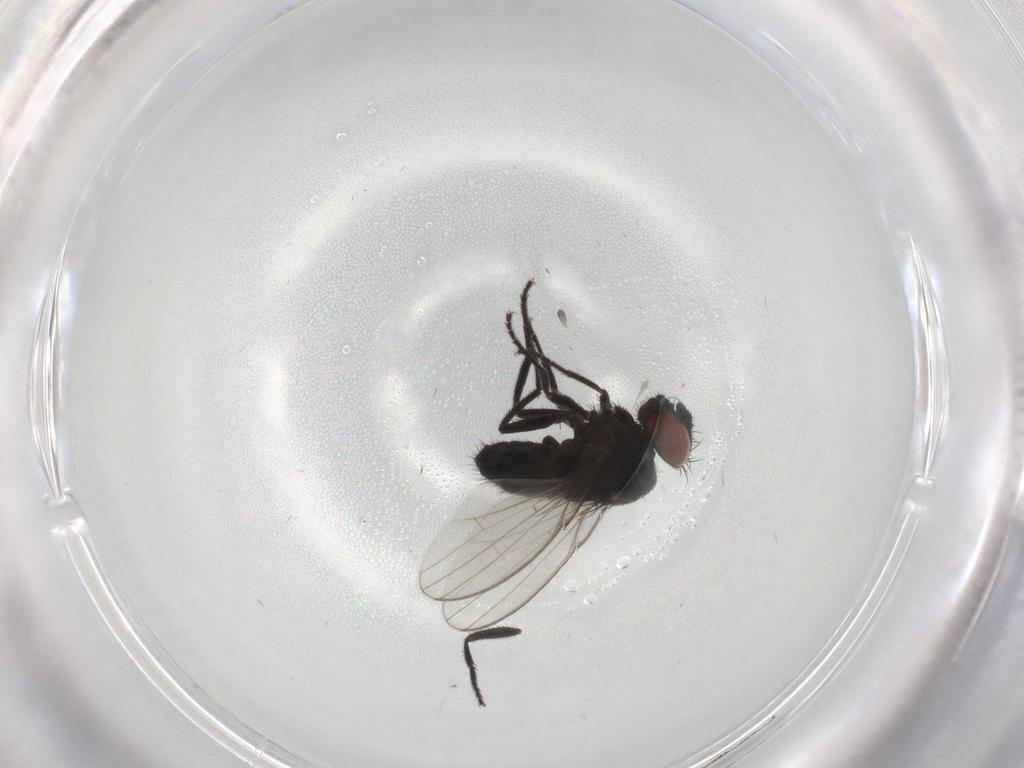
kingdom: Animalia
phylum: Arthropoda
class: Insecta
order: Diptera
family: Milichiidae
